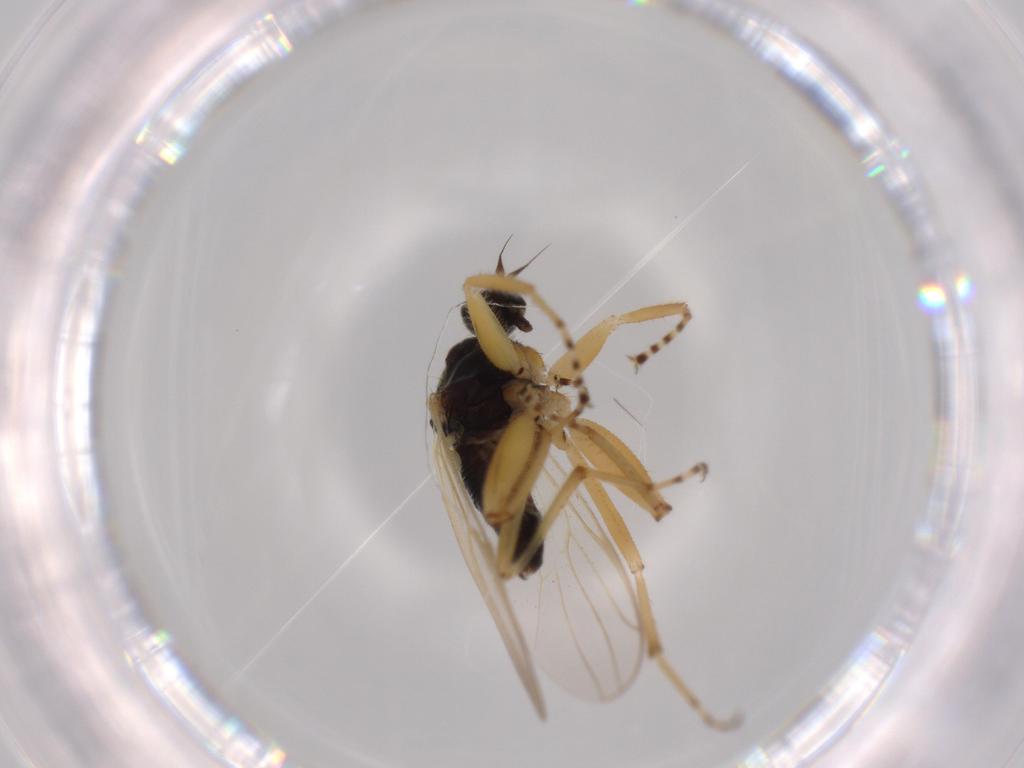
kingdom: Animalia
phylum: Arthropoda
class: Insecta
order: Diptera
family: Hybotidae
